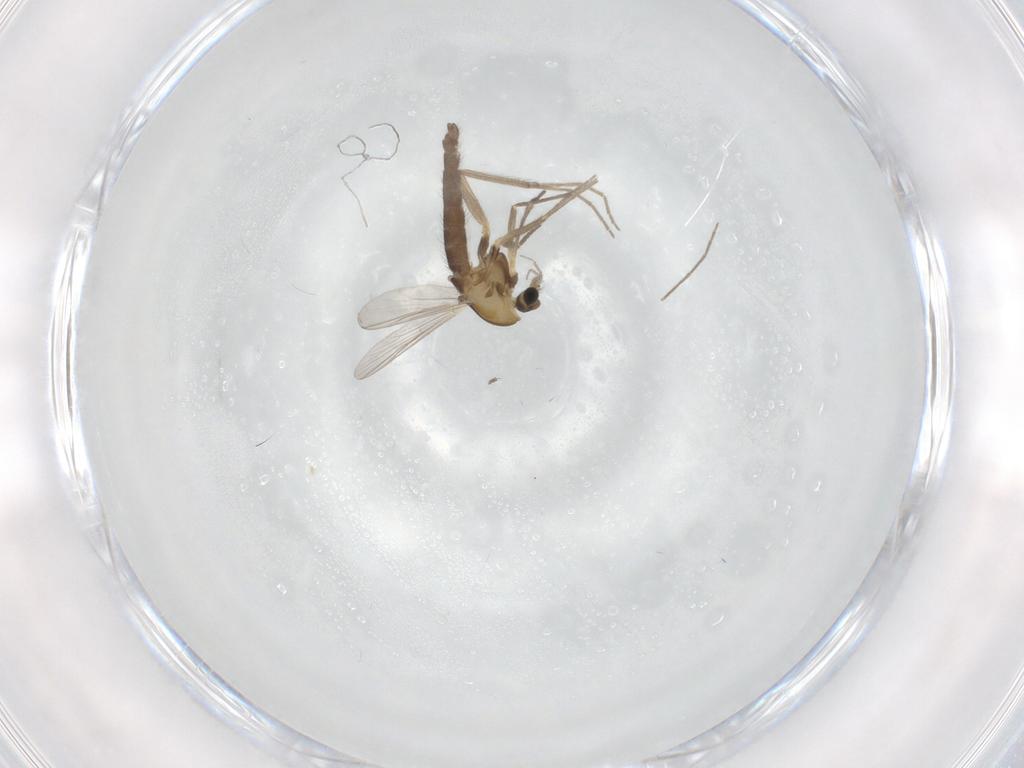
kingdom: Animalia
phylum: Arthropoda
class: Insecta
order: Diptera
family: Chironomidae
